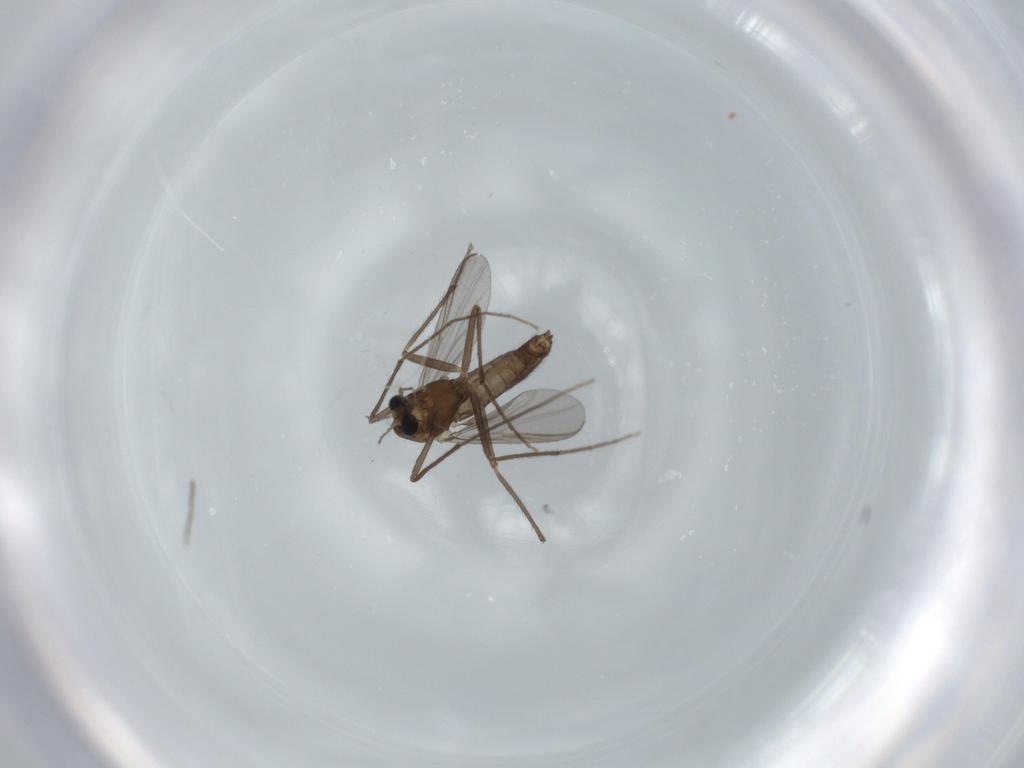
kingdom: Animalia
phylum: Arthropoda
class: Insecta
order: Diptera
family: Chironomidae
